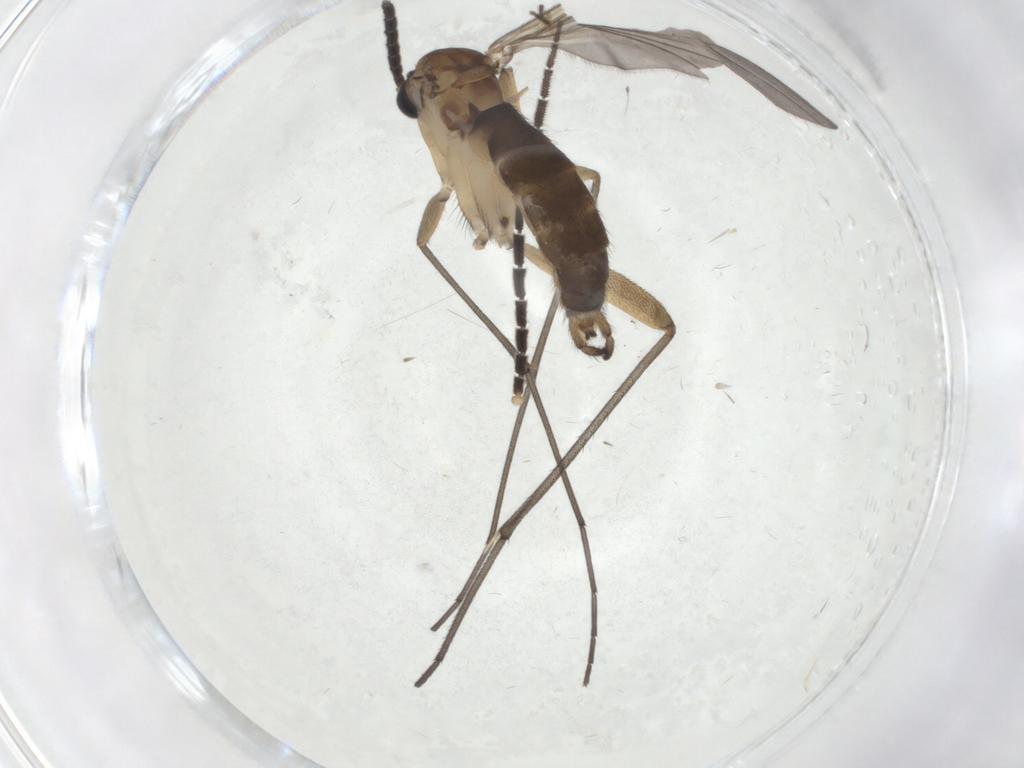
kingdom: Animalia
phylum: Arthropoda
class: Insecta
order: Diptera
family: Sciaridae
